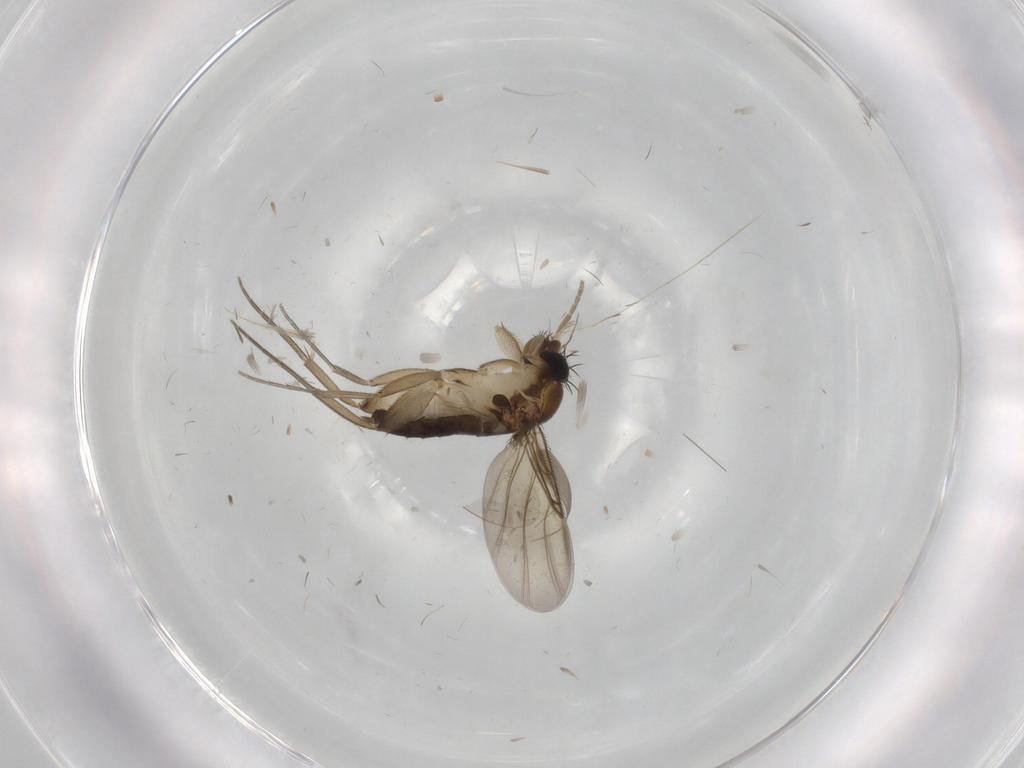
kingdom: Animalia
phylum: Arthropoda
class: Insecta
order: Diptera
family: Phoridae
